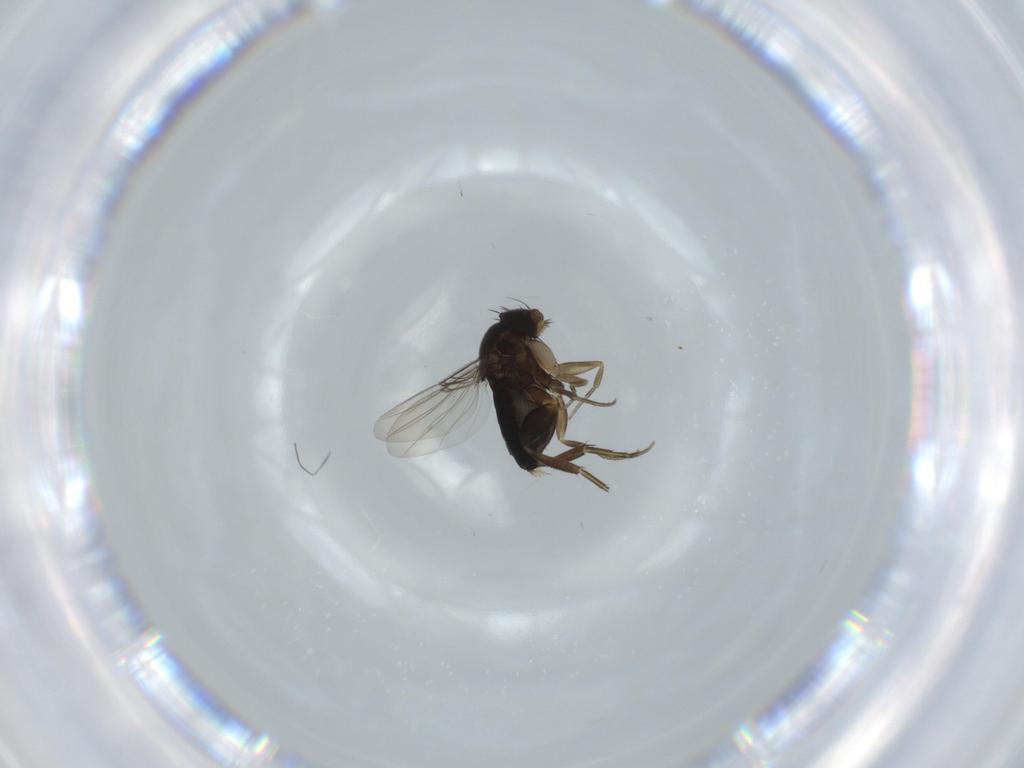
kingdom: Animalia
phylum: Arthropoda
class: Insecta
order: Diptera
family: Phoridae
